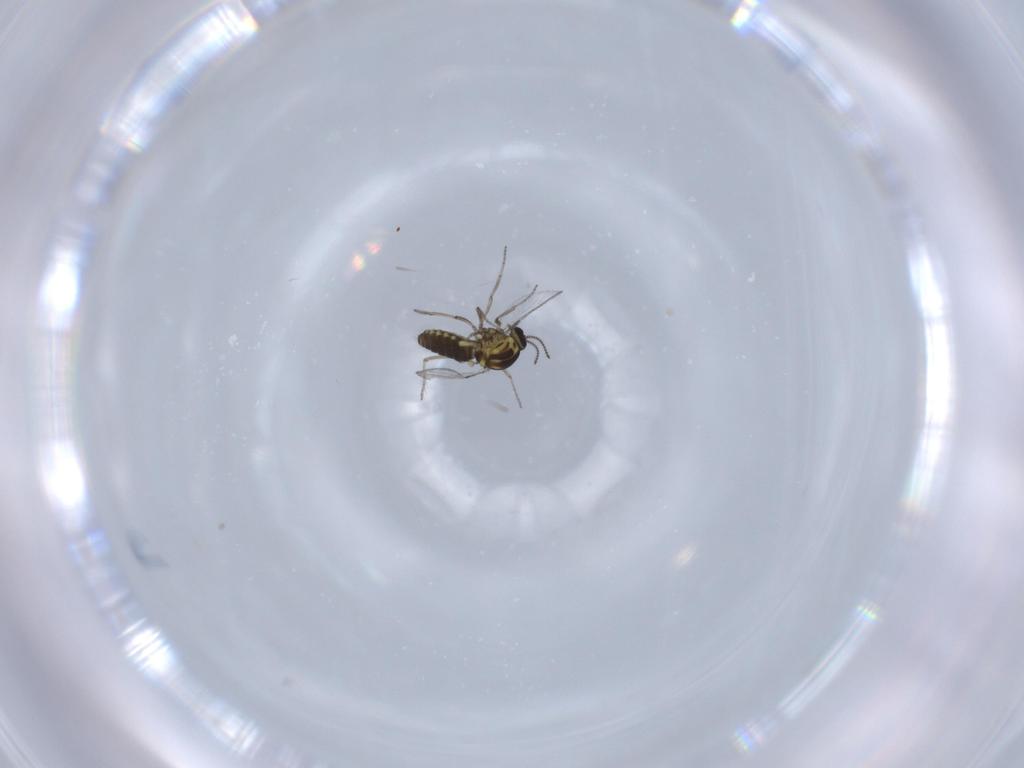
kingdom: Animalia
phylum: Arthropoda
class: Insecta
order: Diptera
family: Ceratopogonidae
